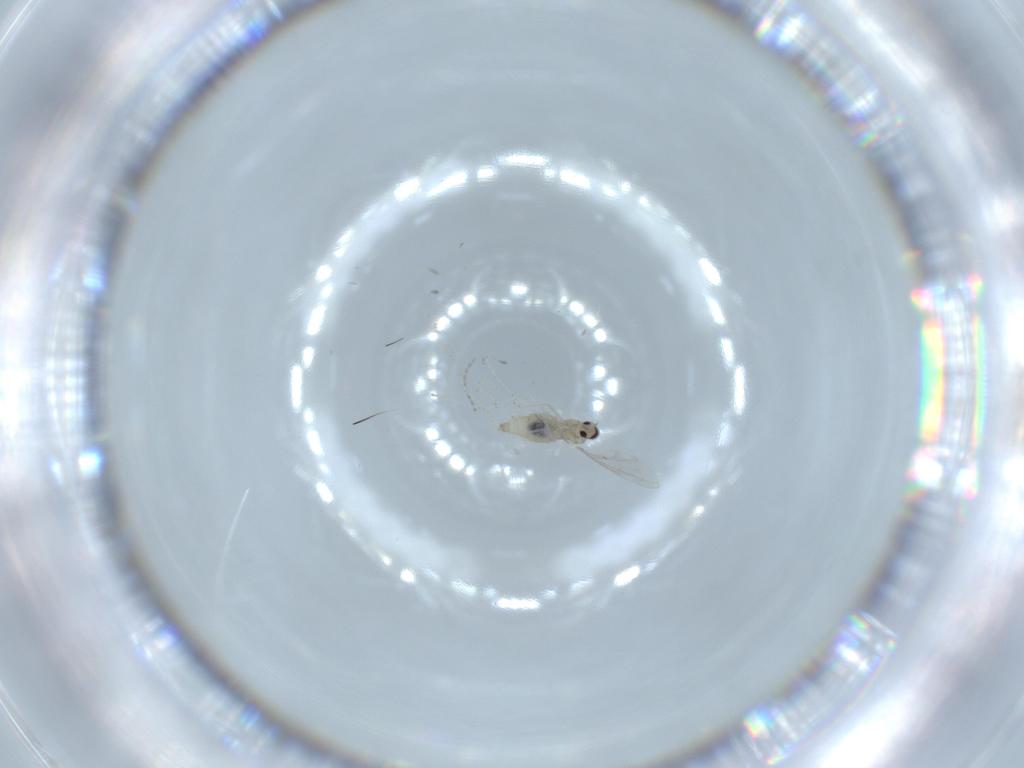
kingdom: Animalia
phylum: Arthropoda
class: Insecta
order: Diptera
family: Cecidomyiidae
